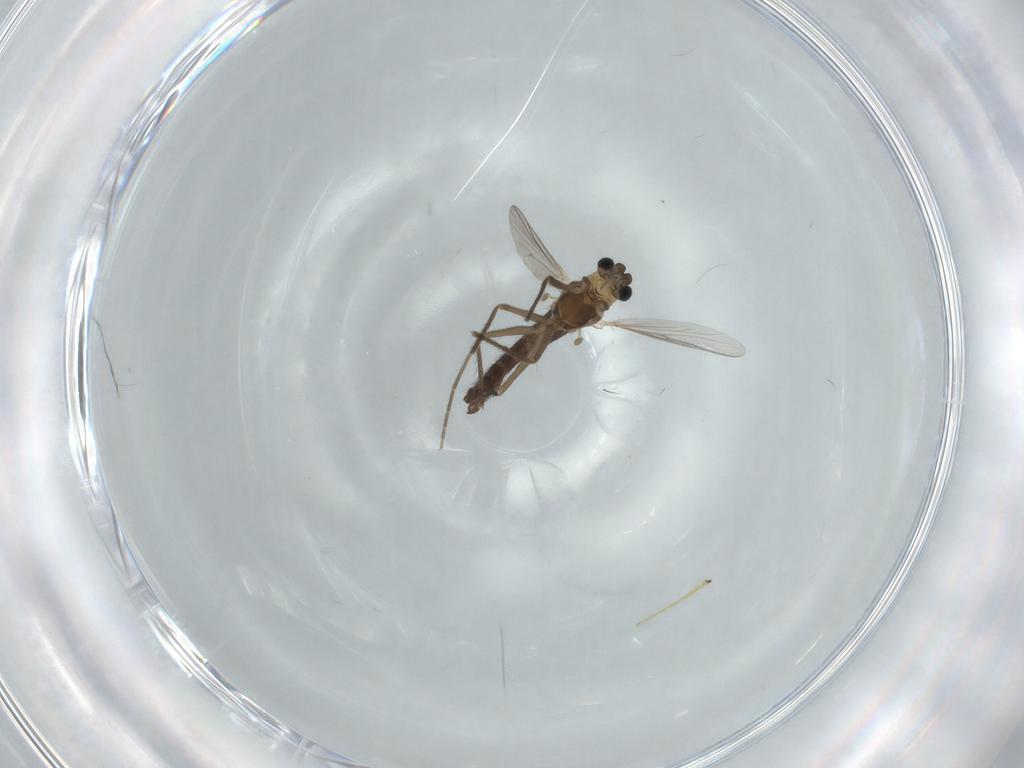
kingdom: Animalia
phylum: Arthropoda
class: Insecta
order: Diptera
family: Chironomidae
